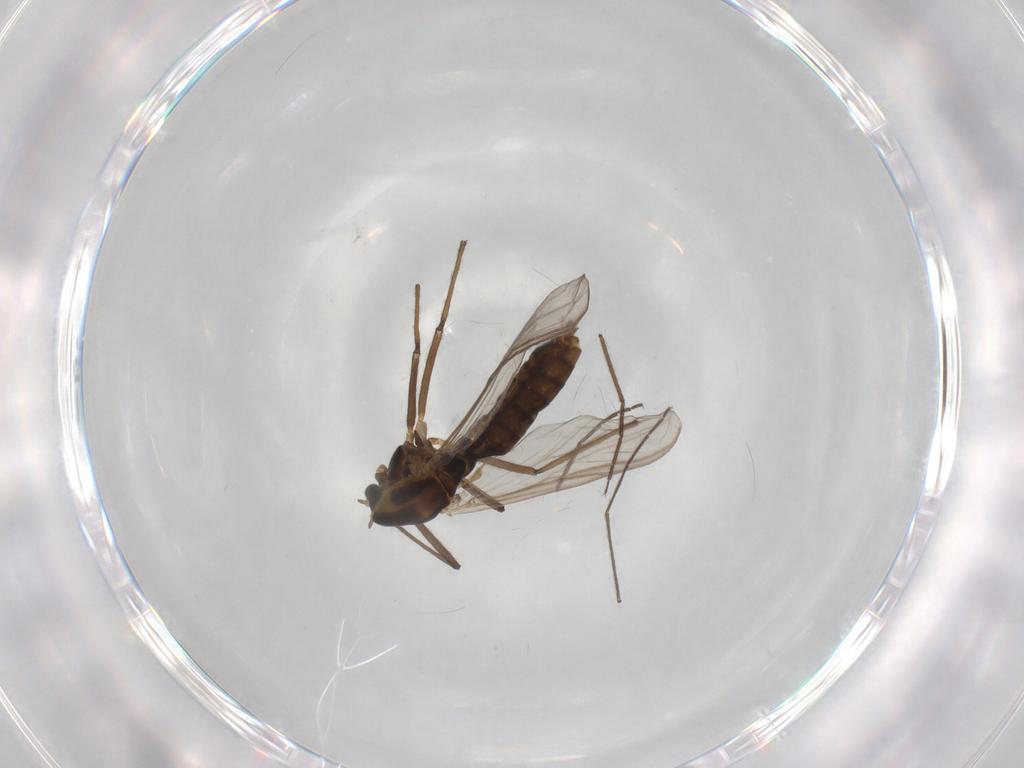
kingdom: Animalia
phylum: Arthropoda
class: Insecta
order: Diptera
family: Chironomidae
